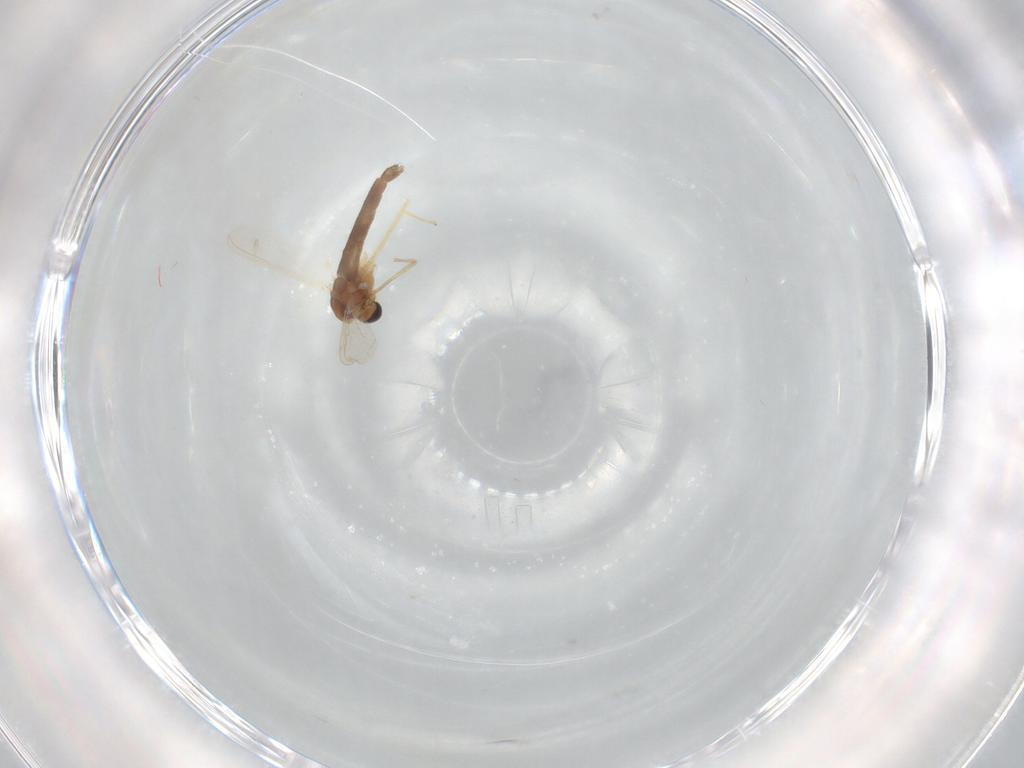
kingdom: Animalia
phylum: Arthropoda
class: Insecta
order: Diptera
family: Chironomidae
